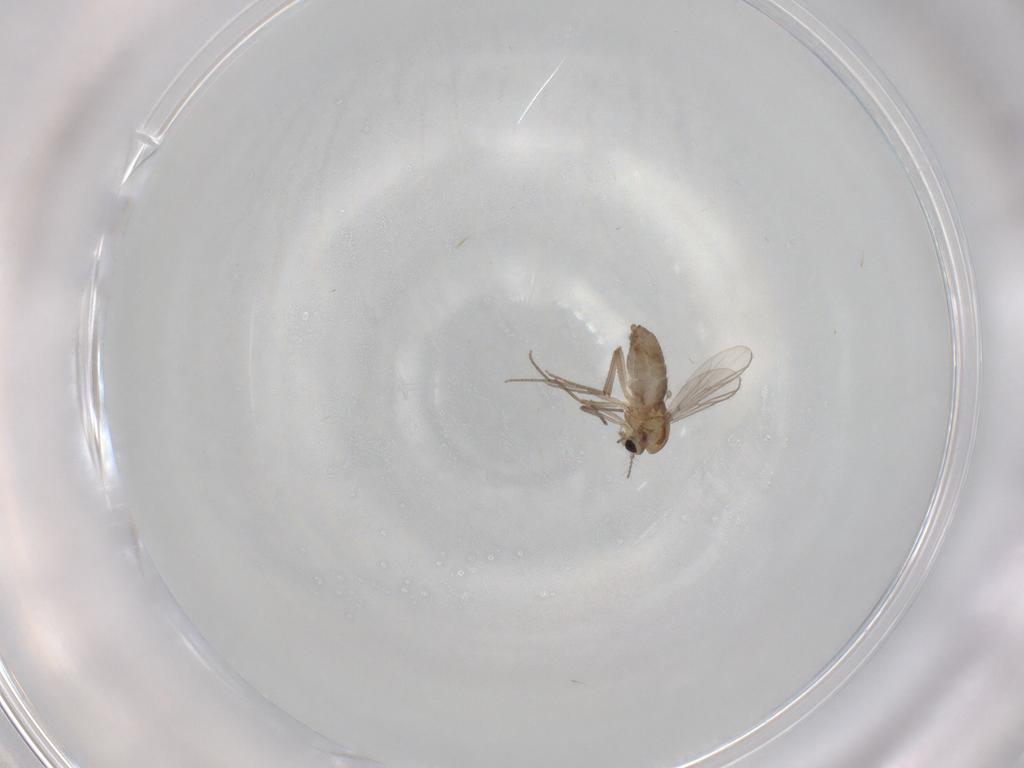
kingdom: Animalia
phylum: Arthropoda
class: Insecta
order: Diptera
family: Chironomidae
